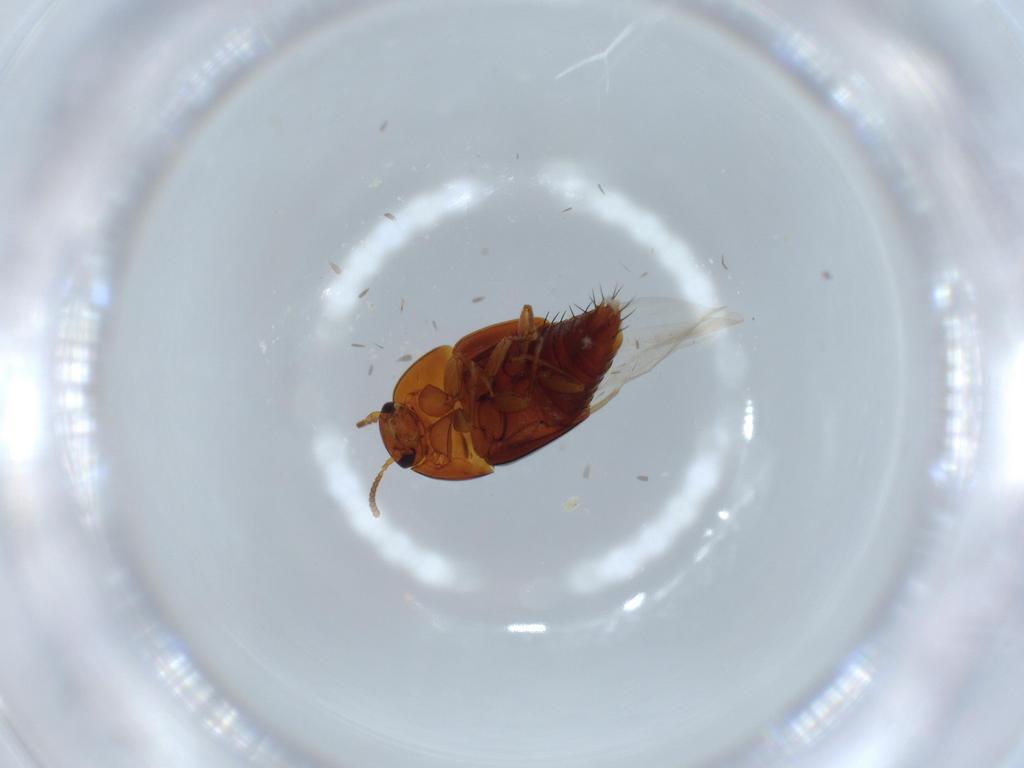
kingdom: Animalia
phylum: Arthropoda
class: Insecta
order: Coleoptera
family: Staphylinidae
